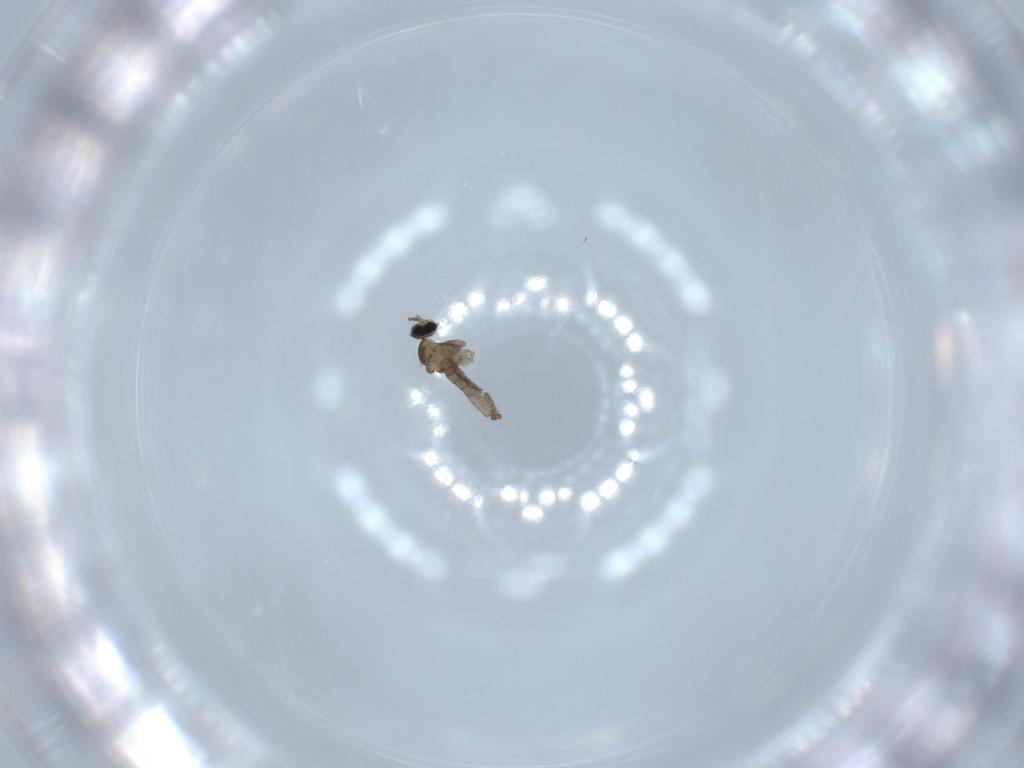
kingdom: Animalia
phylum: Arthropoda
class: Insecta
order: Diptera
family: Cecidomyiidae
